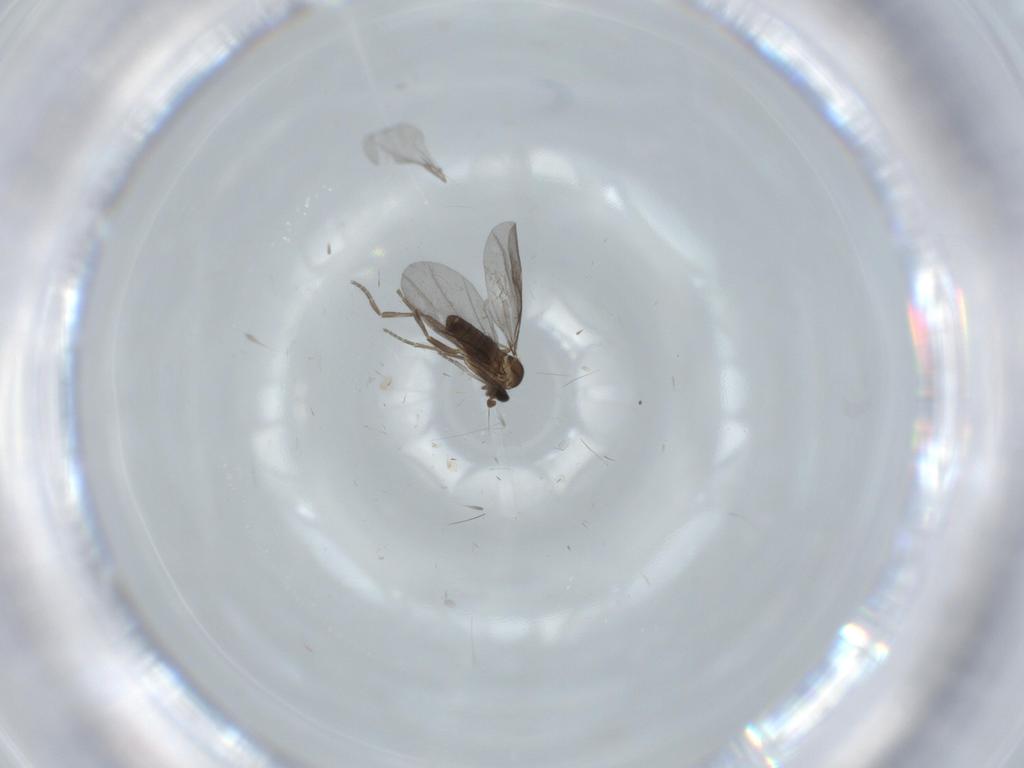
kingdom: Animalia
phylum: Arthropoda
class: Insecta
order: Diptera
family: Phoridae
